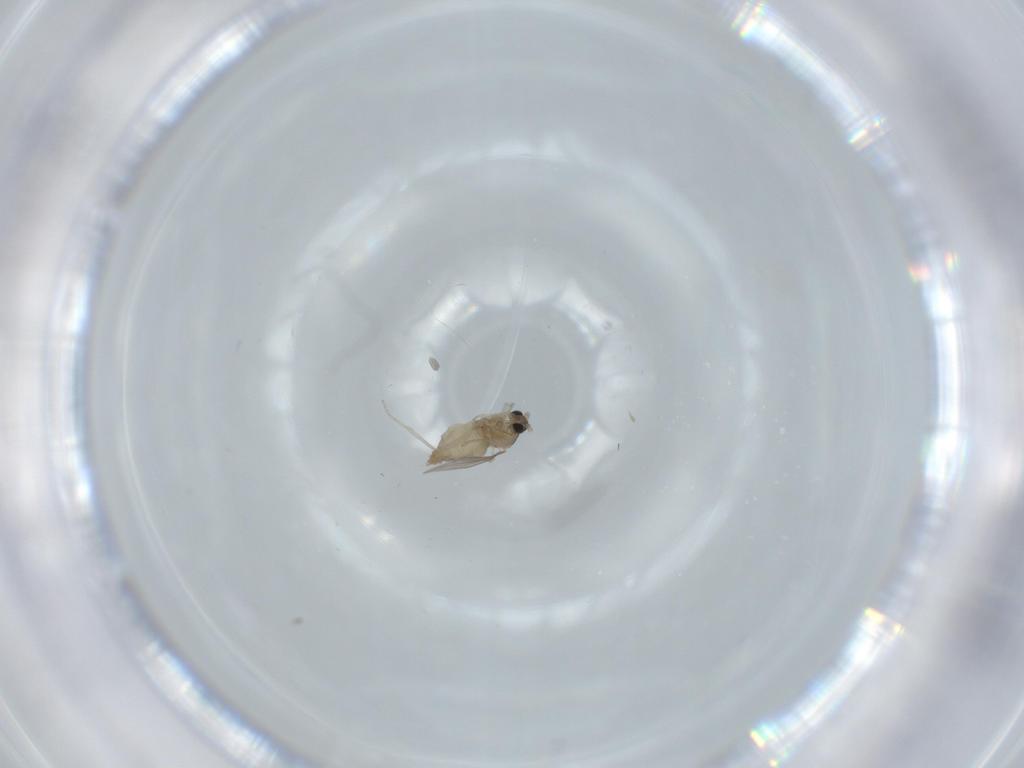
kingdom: Animalia
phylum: Arthropoda
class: Insecta
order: Diptera
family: Cecidomyiidae
